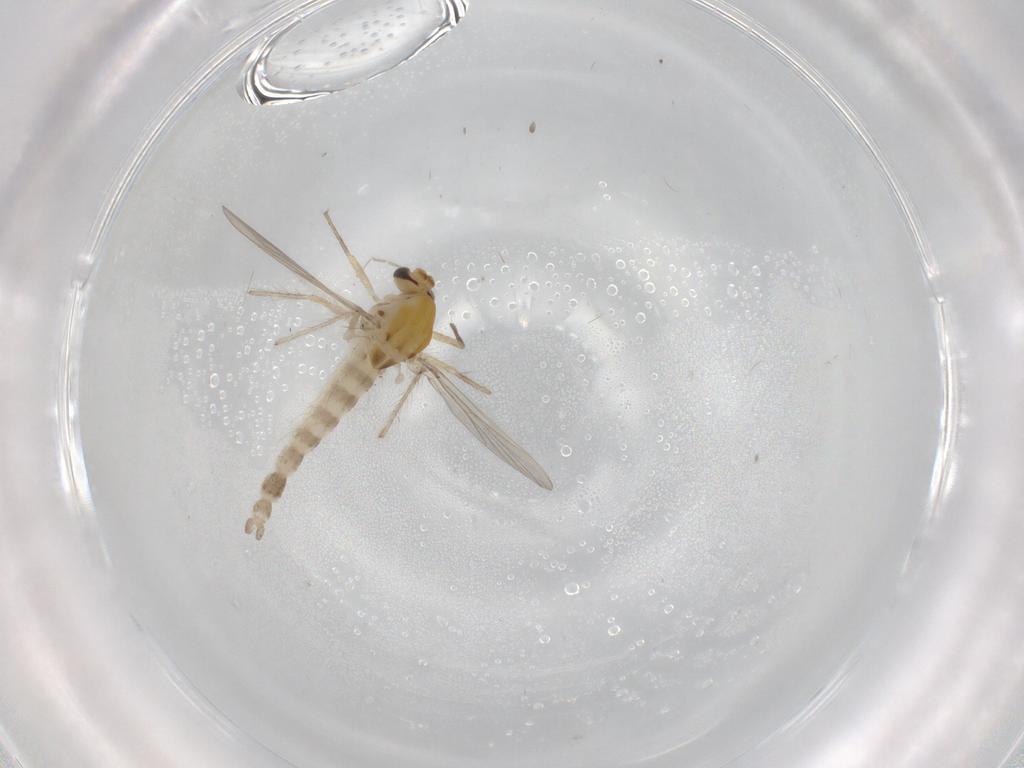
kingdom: Animalia
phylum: Arthropoda
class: Insecta
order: Diptera
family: Chironomidae
